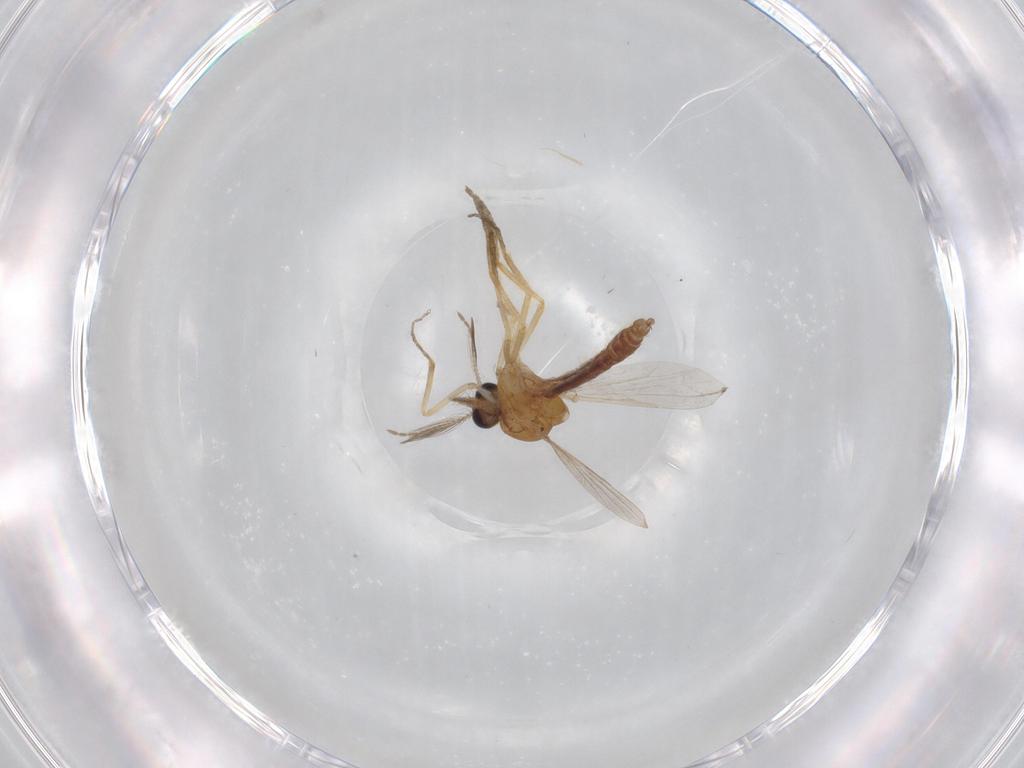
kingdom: Animalia
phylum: Arthropoda
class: Insecta
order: Diptera
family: Ceratopogonidae
